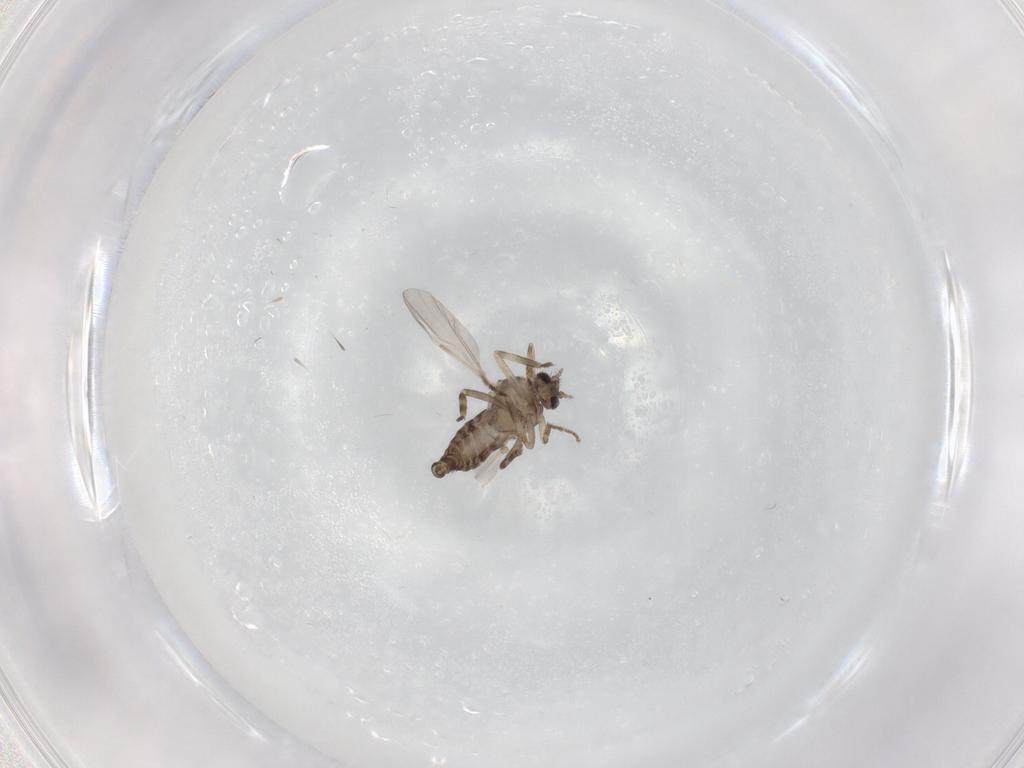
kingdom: Animalia
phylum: Arthropoda
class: Insecta
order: Diptera
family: Ceratopogonidae
